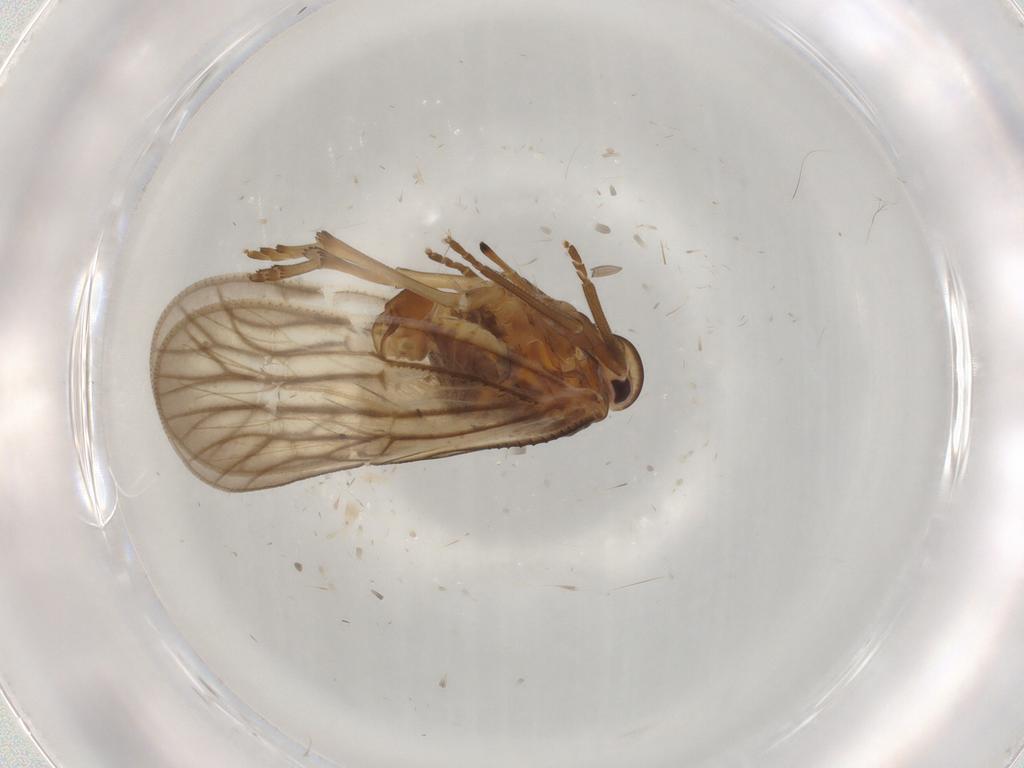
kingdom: Animalia
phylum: Arthropoda
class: Insecta
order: Hemiptera
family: Meenoplidae
